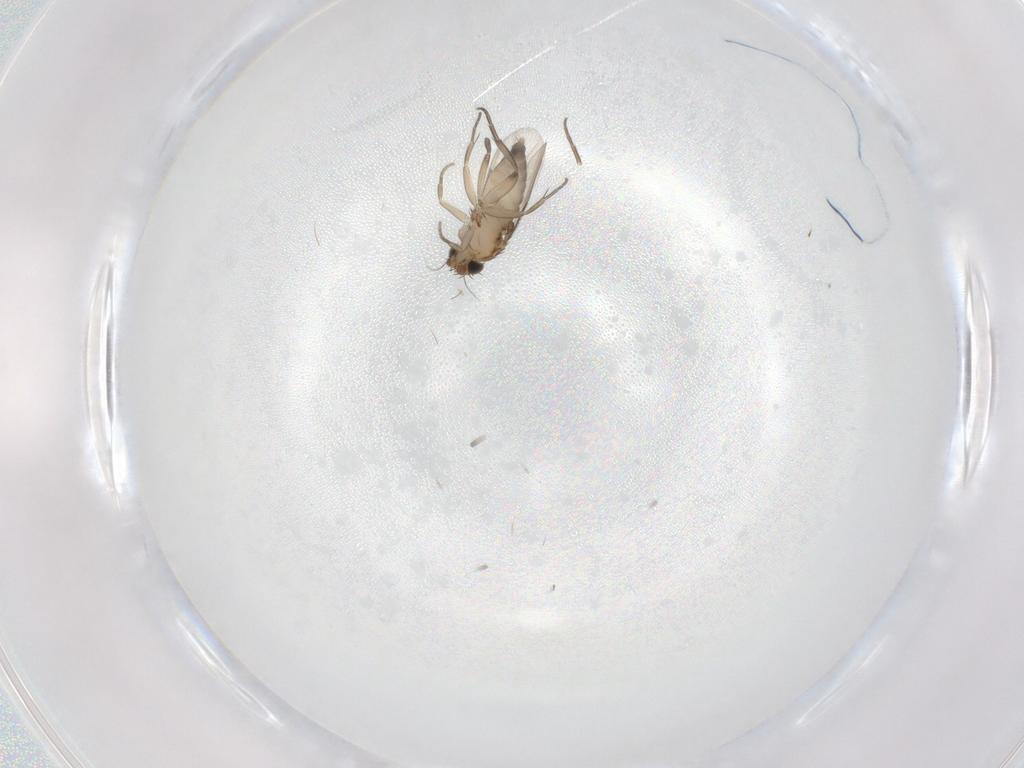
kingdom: Animalia
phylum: Arthropoda
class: Insecta
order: Diptera
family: Phoridae
